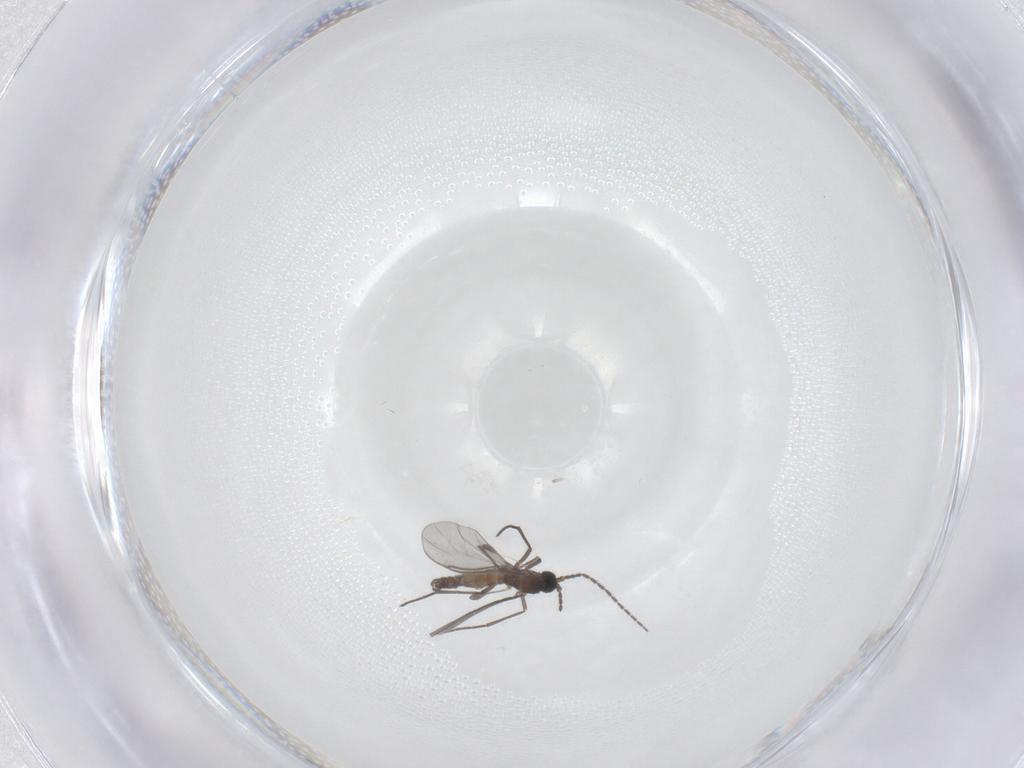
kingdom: Animalia
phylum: Arthropoda
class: Insecta
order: Diptera
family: Sciaridae
